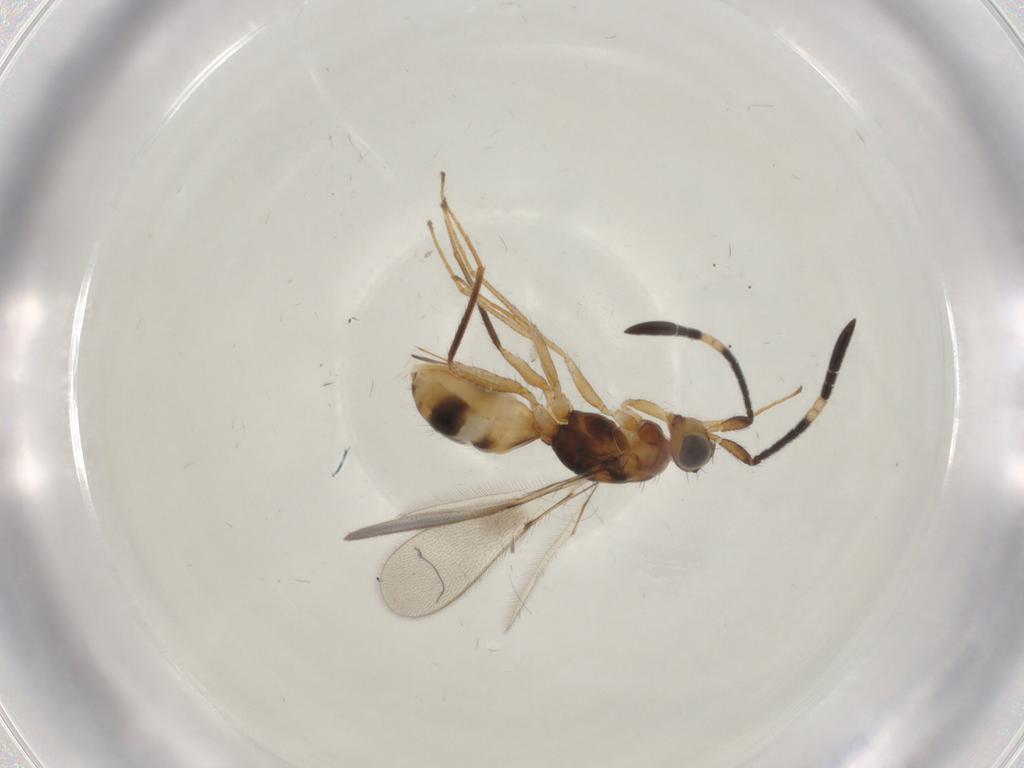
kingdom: Animalia
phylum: Arthropoda
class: Insecta
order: Hymenoptera
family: Mymaridae
